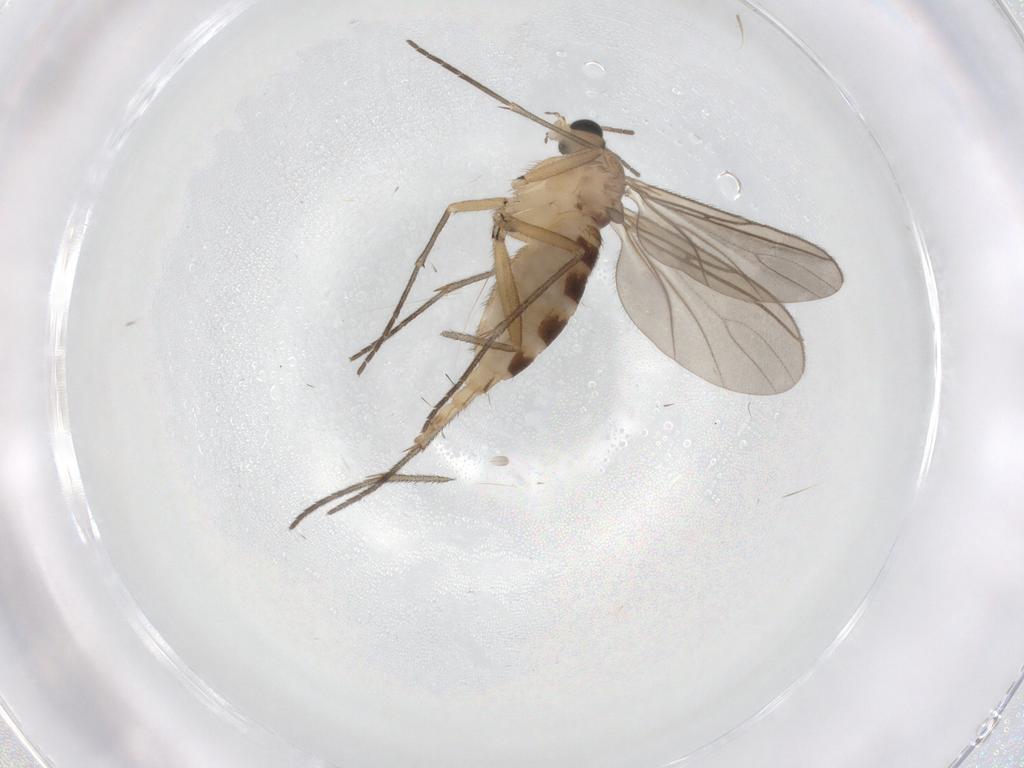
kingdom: Animalia
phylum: Arthropoda
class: Insecta
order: Diptera
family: Sciaridae
